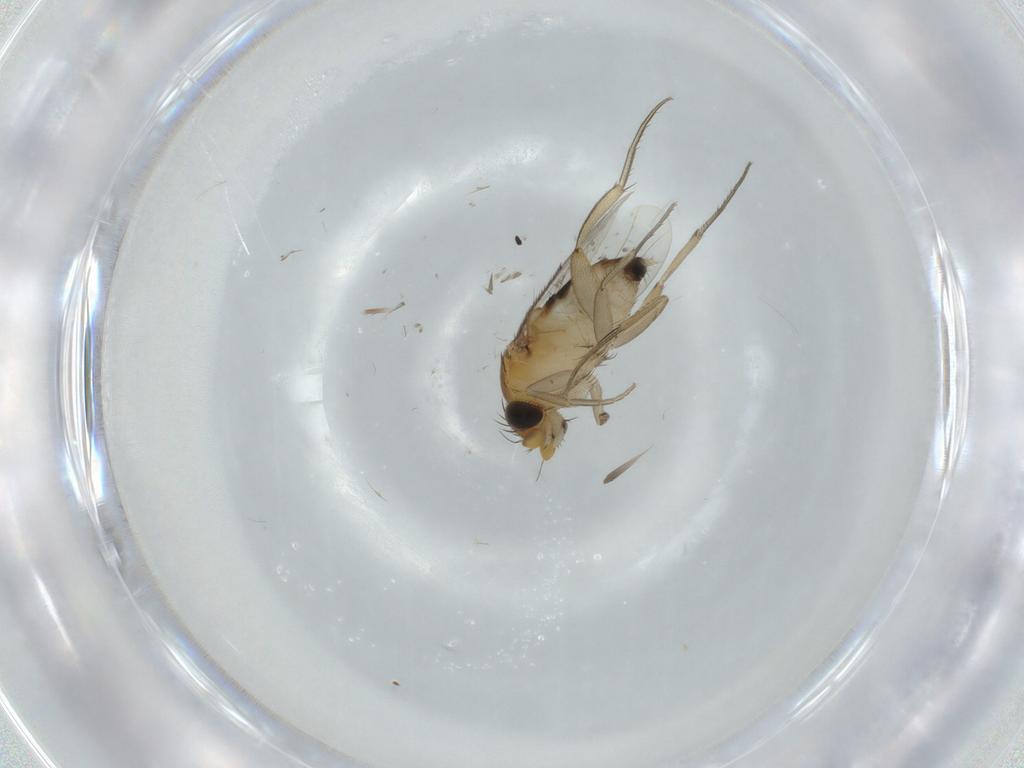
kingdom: Animalia
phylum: Arthropoda
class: Insecta
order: Diptera
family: Phoridae
